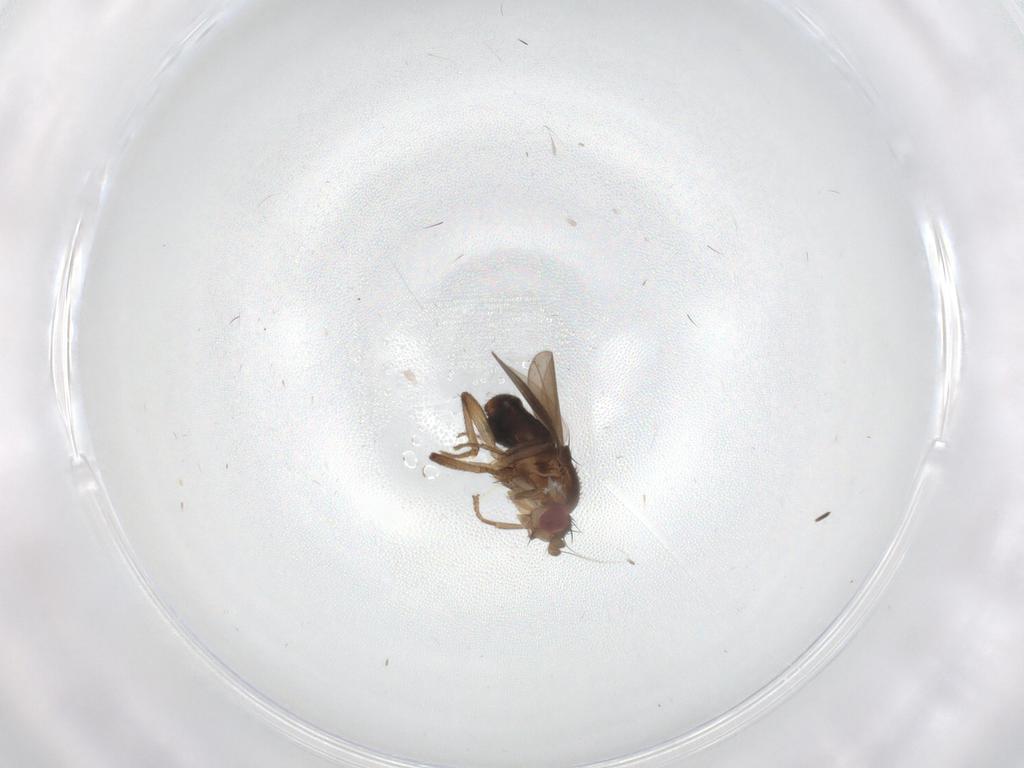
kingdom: Animalia
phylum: Arthropoda
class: Insecta
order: Diptera
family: Sphaeroceridae
